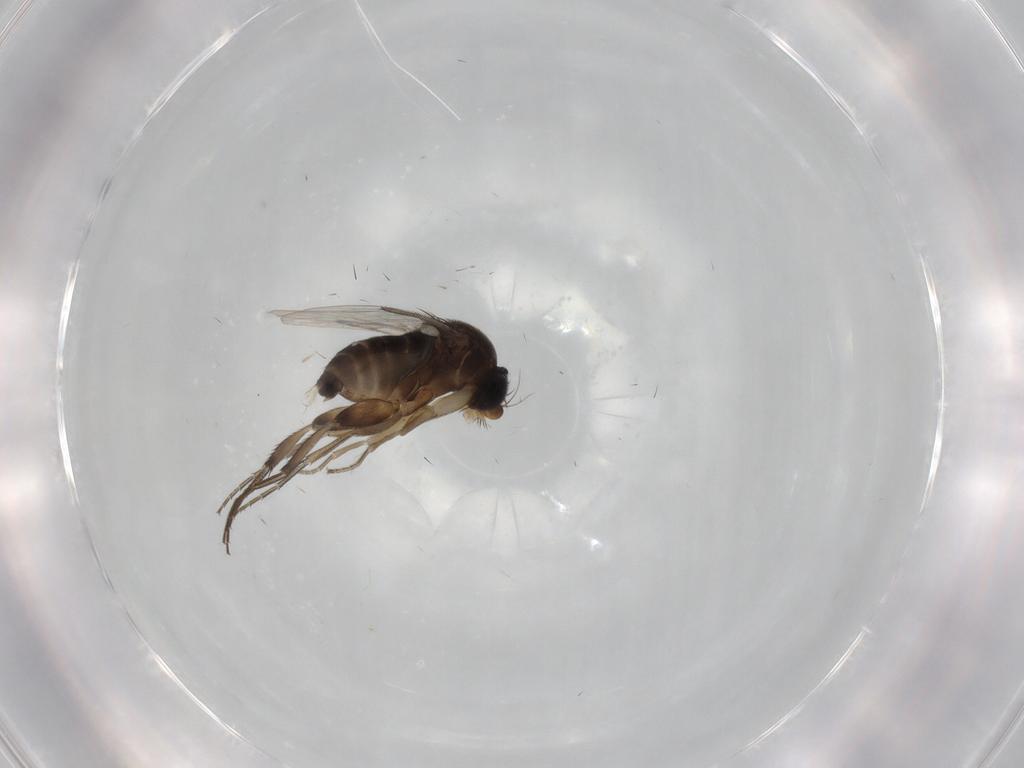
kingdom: Animalia
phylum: Arthropoda
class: Insecta
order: Diptera
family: Phoridae
